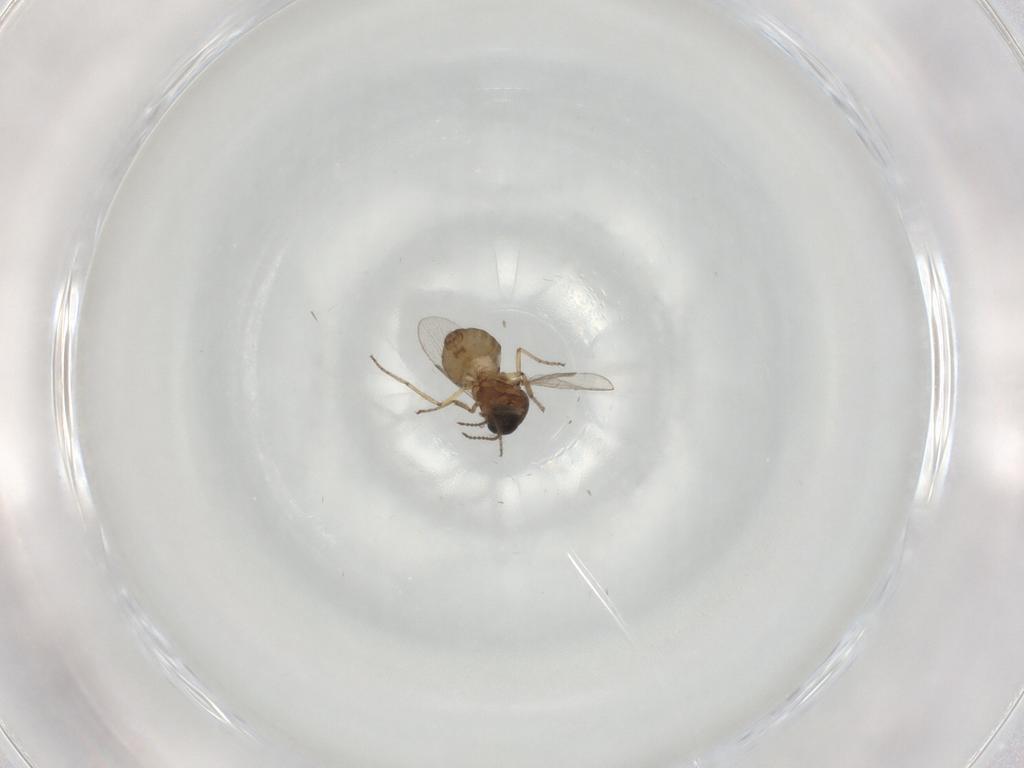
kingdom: Animalia
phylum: Arthropoda
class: Insecta
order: Diptera
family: Ceratopogonidae
